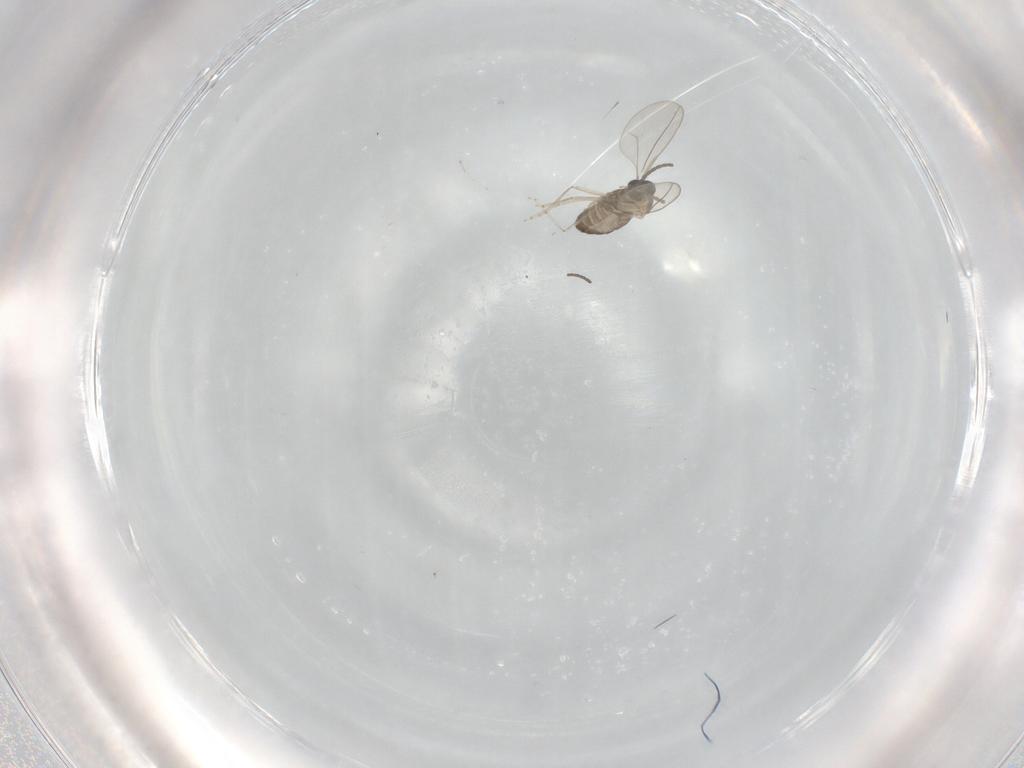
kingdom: Animalia
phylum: Arthropoda
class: Insecta
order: Diptera
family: Cecidomyiidae
